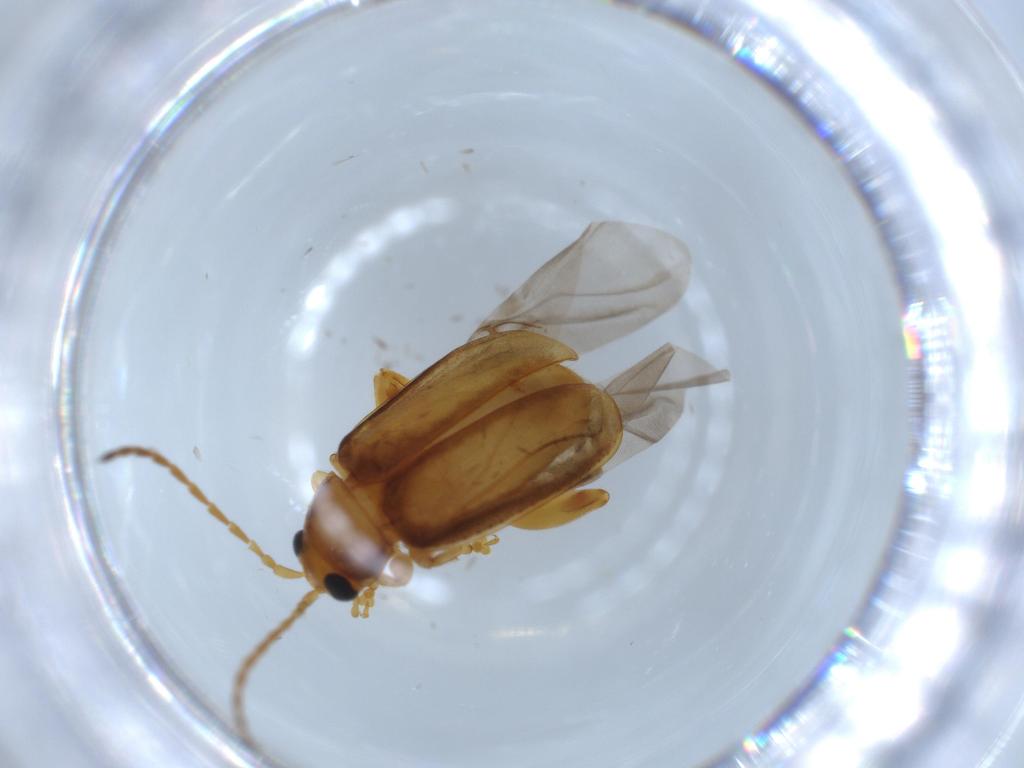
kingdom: Animalia
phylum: Arthropoda
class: Insecta
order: Coleoptera
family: Chrysomelidae
